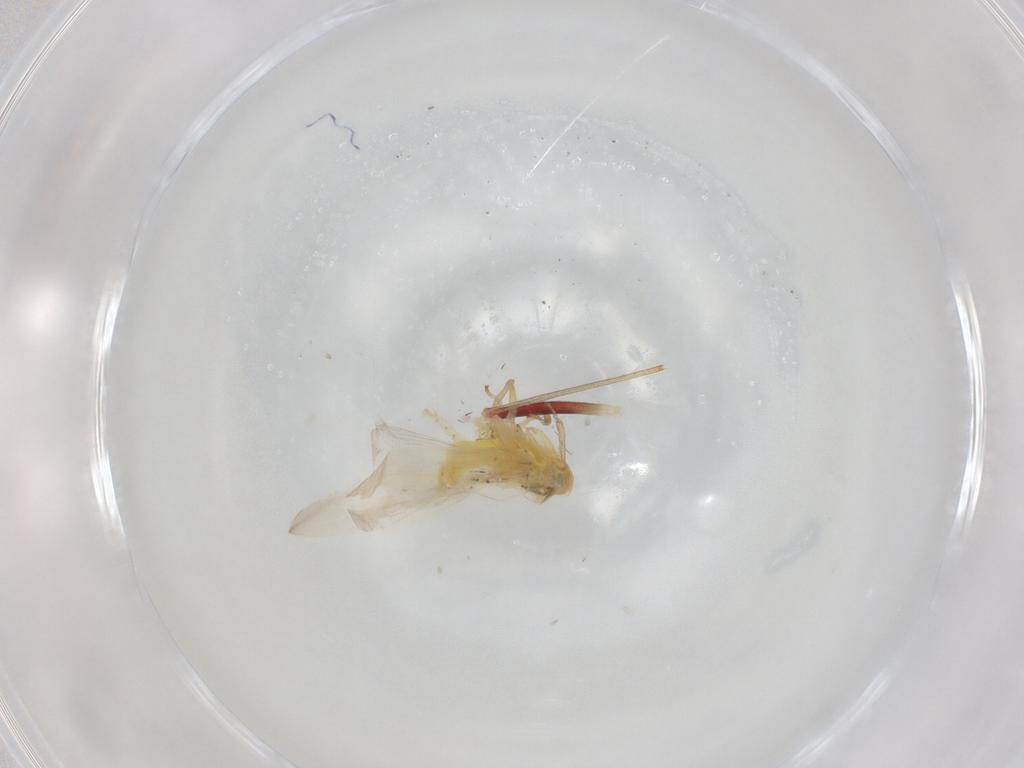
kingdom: Animalia
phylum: Arthropoda
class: Insecta
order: Hemiptera
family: Cicadellidae
